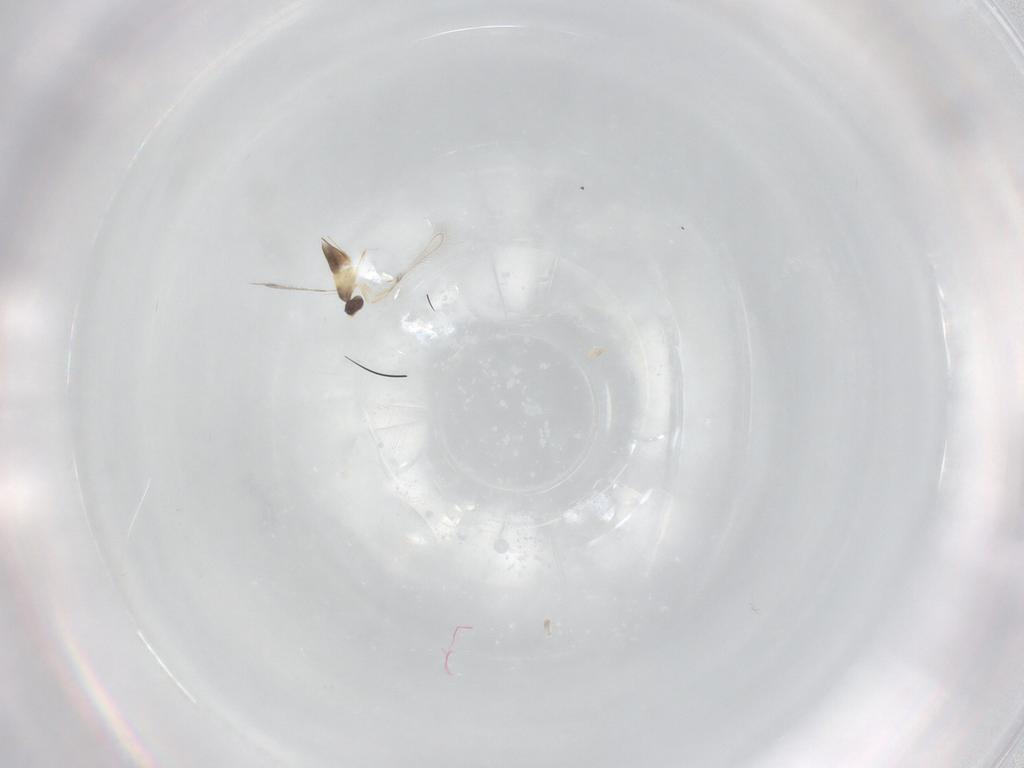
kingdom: Animalia
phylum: Arthropoda
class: Insecta
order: Hymenoptera
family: Mymaridae
